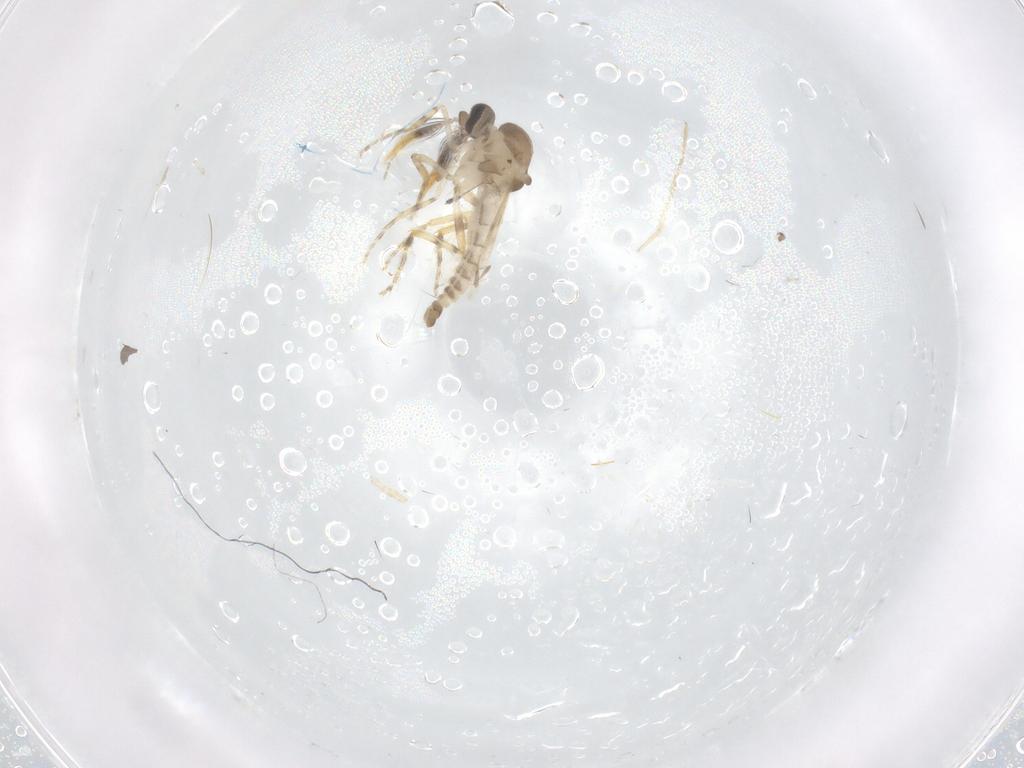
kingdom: Animalia
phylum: Arthropoda
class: Insecta
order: Diptera
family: Ceratopogonidae
